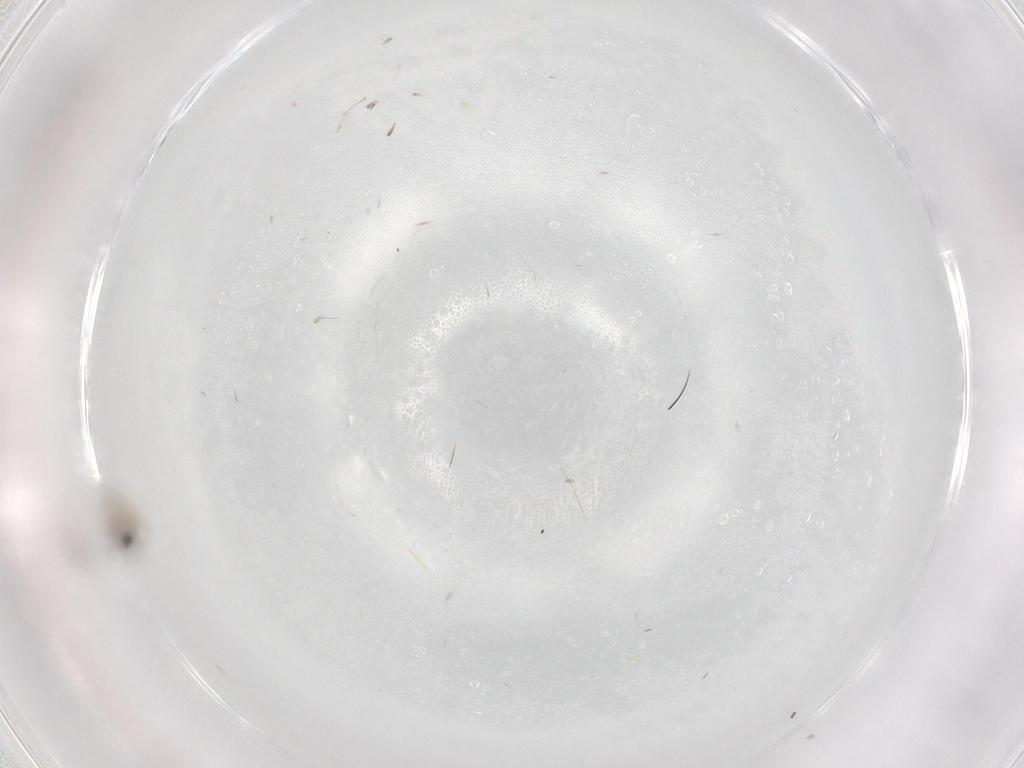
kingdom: Animalia
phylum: Arthropoda
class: Insecta
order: Diptera
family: Cecidomyiidae
